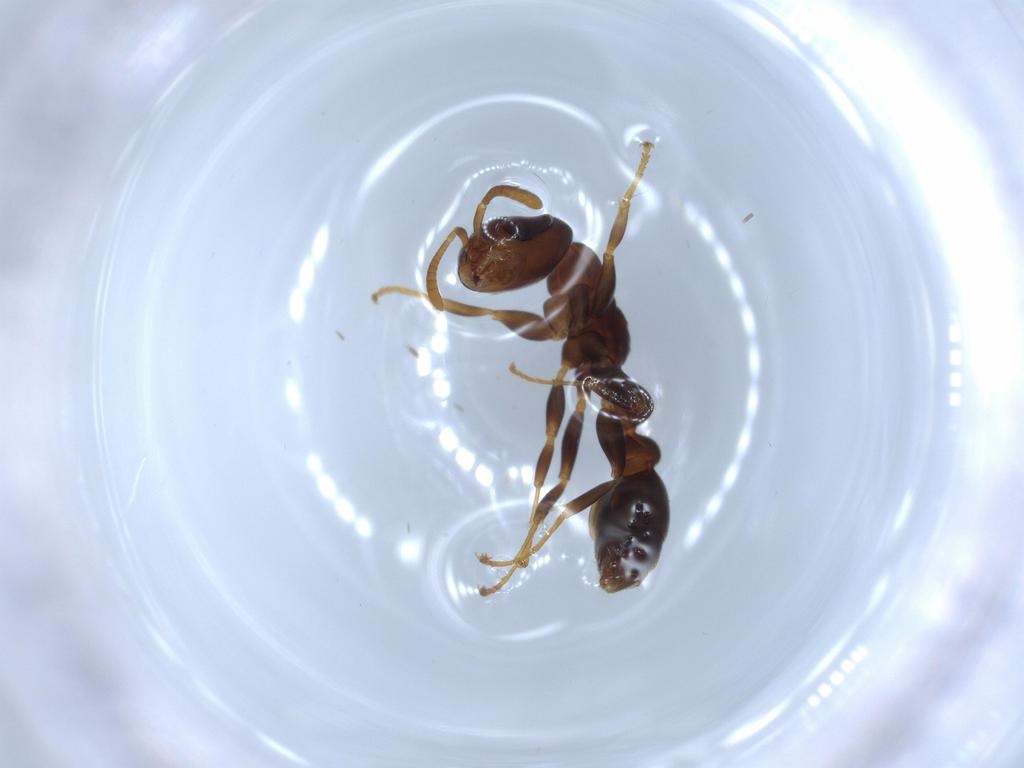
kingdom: Animalia
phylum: Arthropoda
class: Insecta
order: Hymenoptera
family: Formicidae
